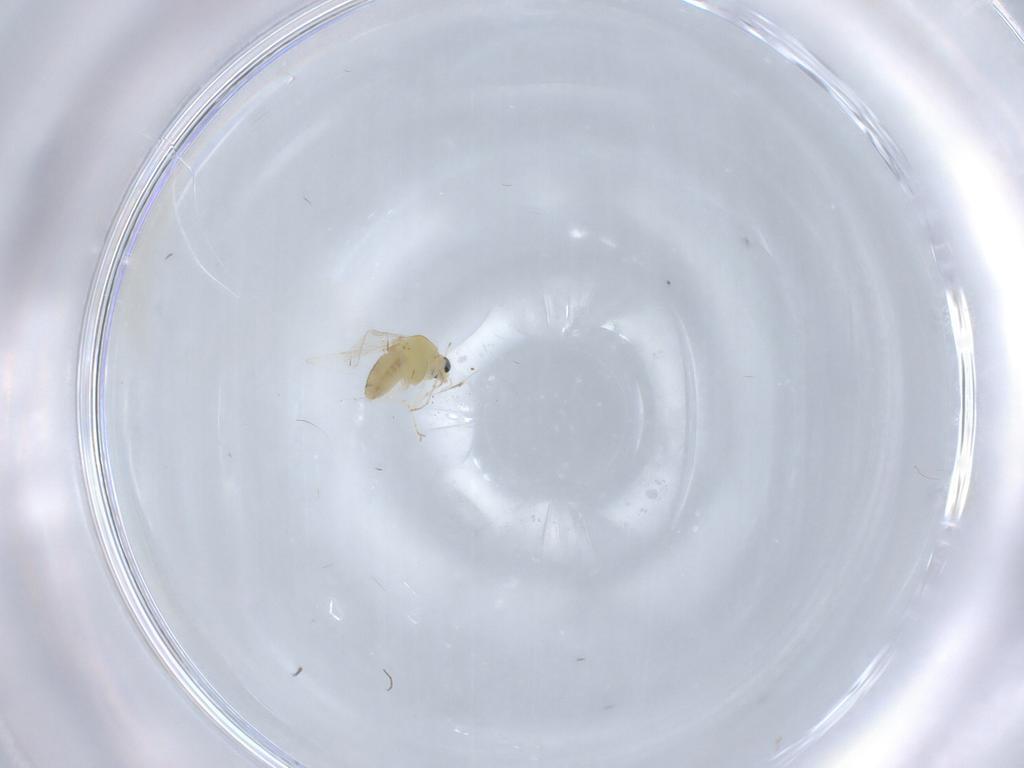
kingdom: Animalia
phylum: Arthropoda
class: Insecta
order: Diptera
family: Chironomidae
